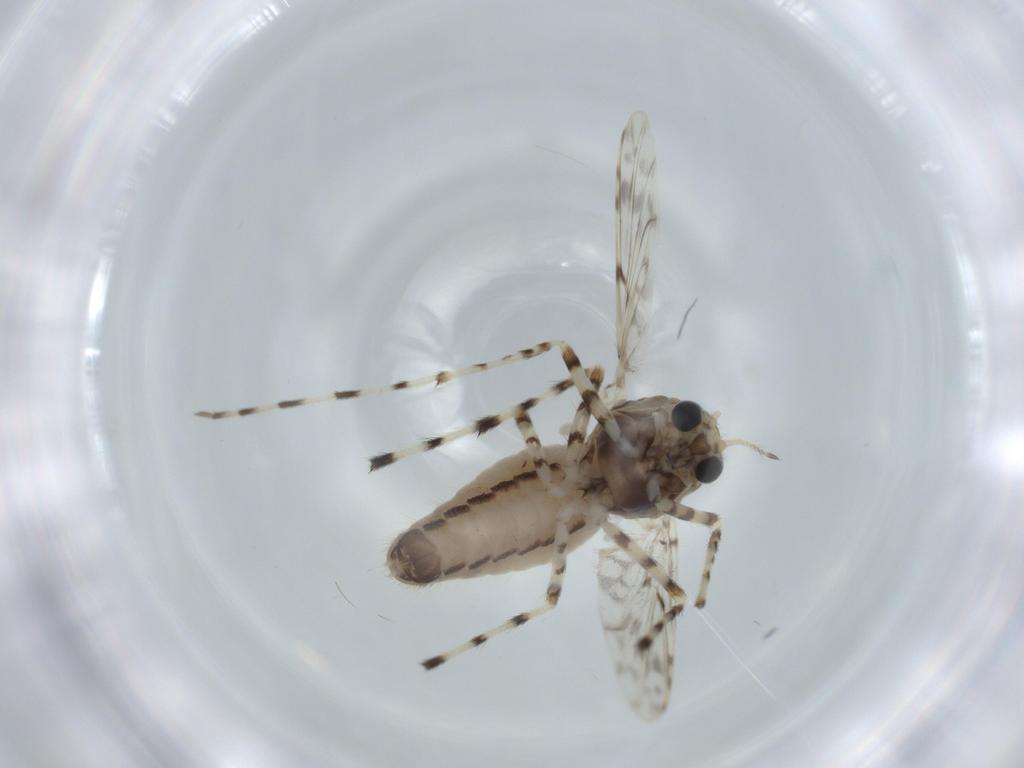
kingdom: Animalia
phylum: Arthropoda
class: Insecta
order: Diptera
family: Chironomidae
